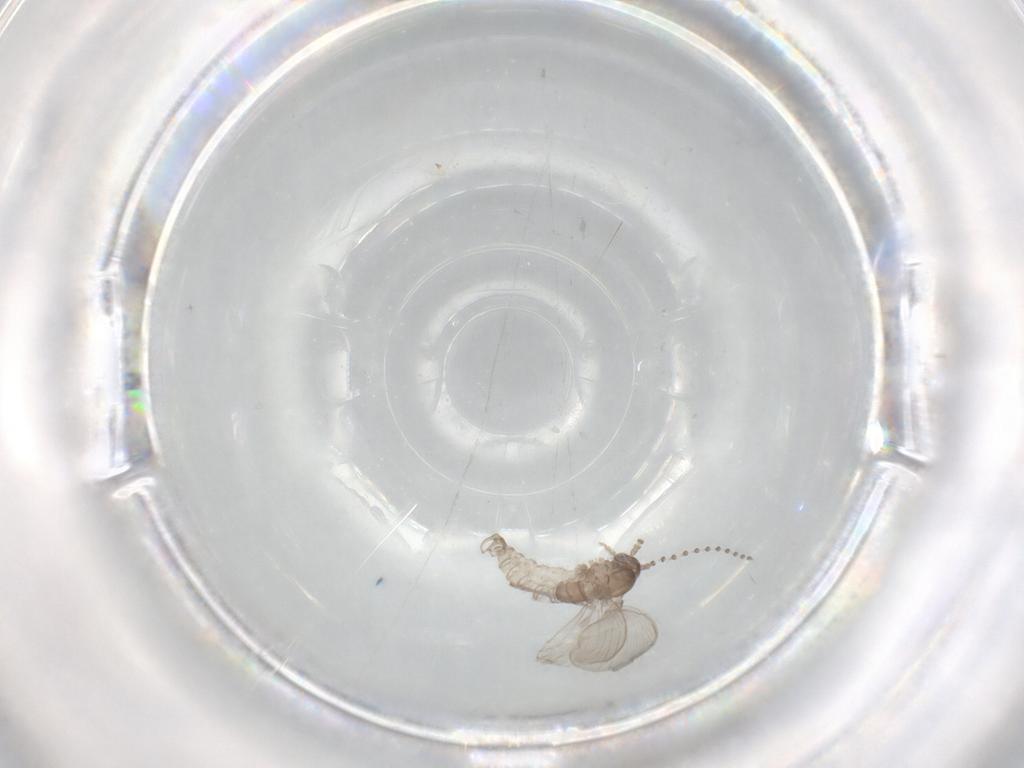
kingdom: Animalia
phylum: Arthropoda
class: Insecta
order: Diptera
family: Psychodidae
